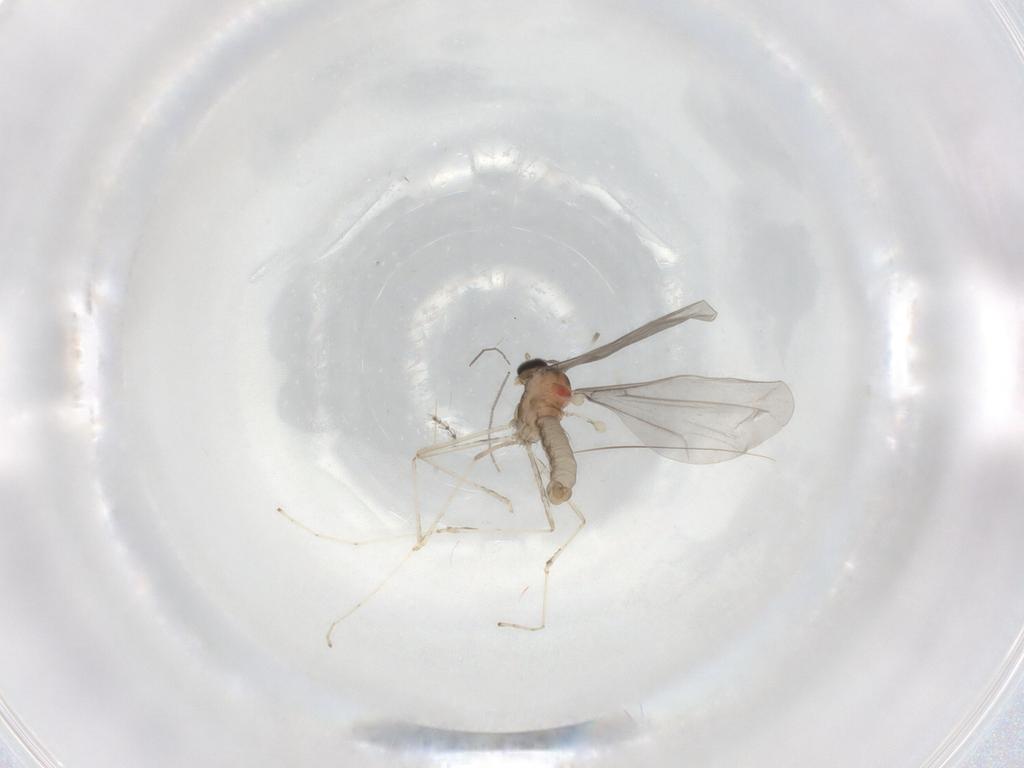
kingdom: Animalia
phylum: Arthropoda
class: Insecta
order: Diptera
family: Cecidomyiidae
